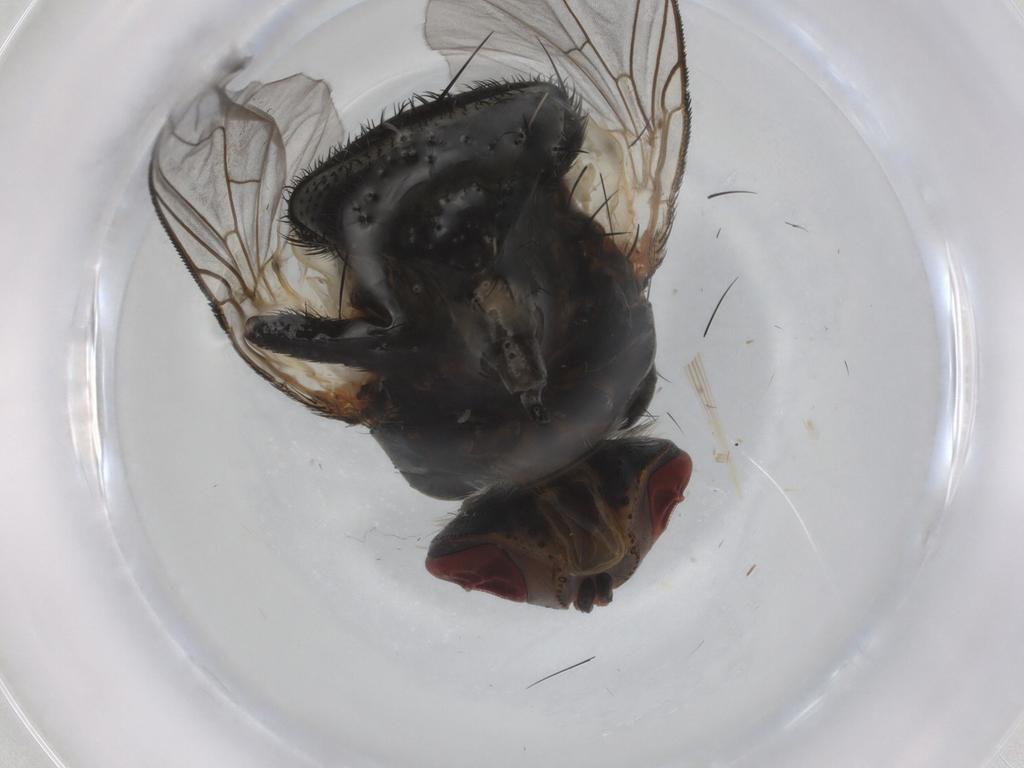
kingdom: Animalia
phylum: Arthropoda
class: Insecta
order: Diptera
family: Tachinidae
